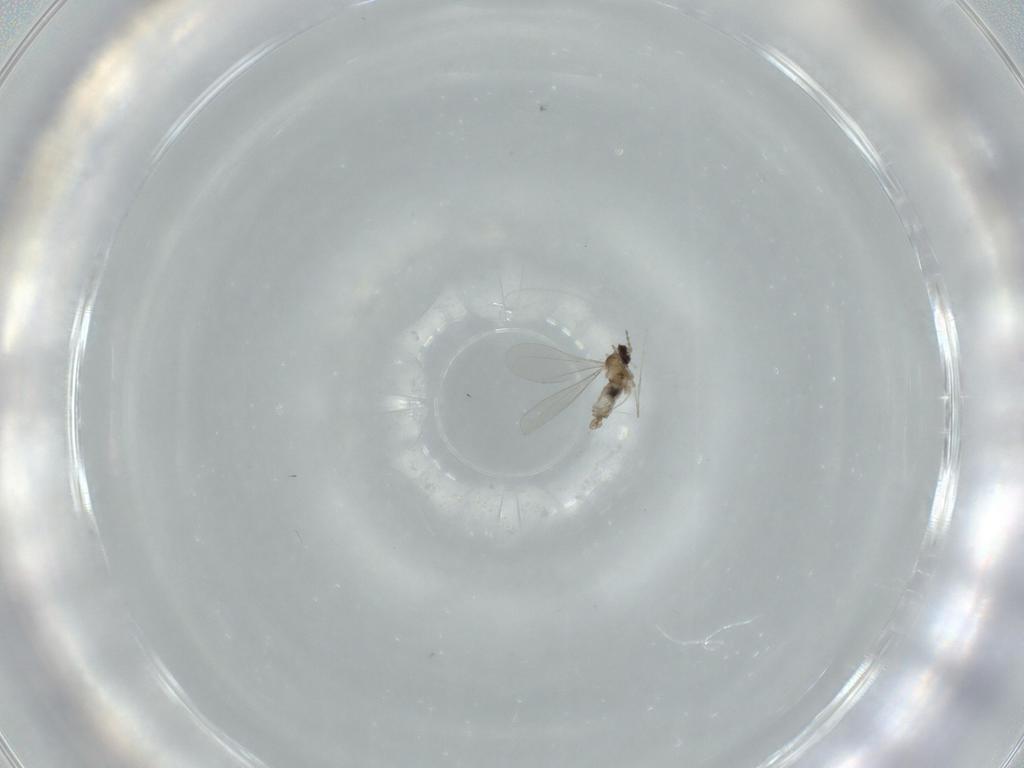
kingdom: Animalia
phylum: Arthropoda
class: Insecta
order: Diptera
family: Cecidomyiidae
